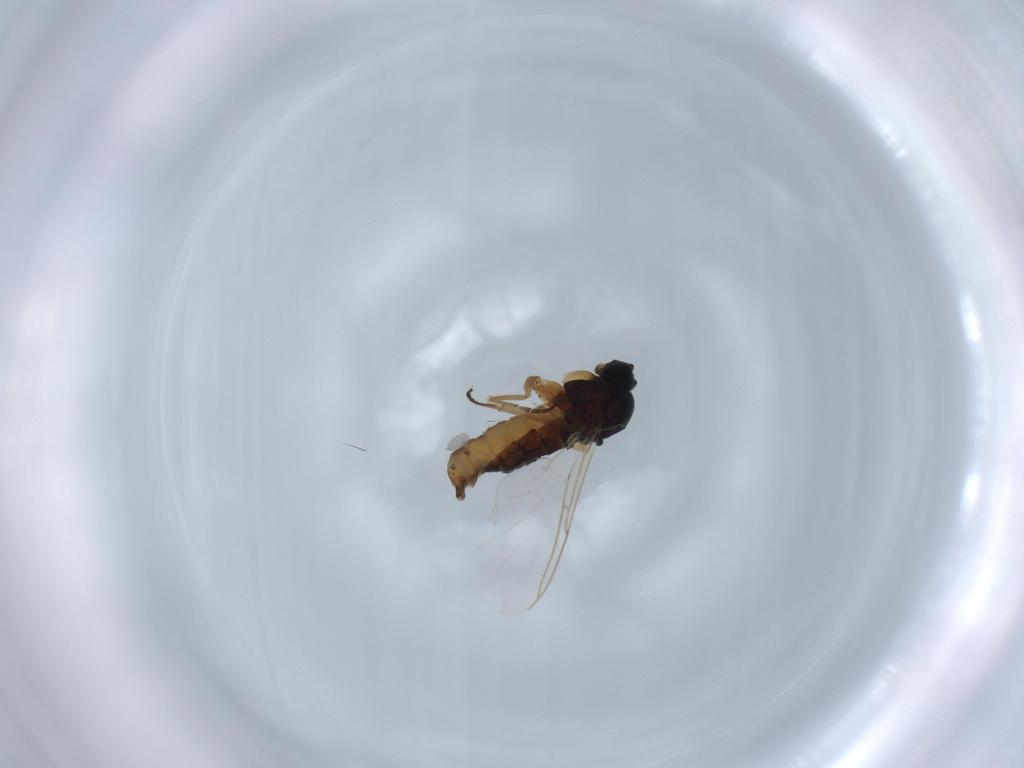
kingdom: Animalia
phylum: Arthropoda
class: Insecta
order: Diptera
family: Sciaridae
